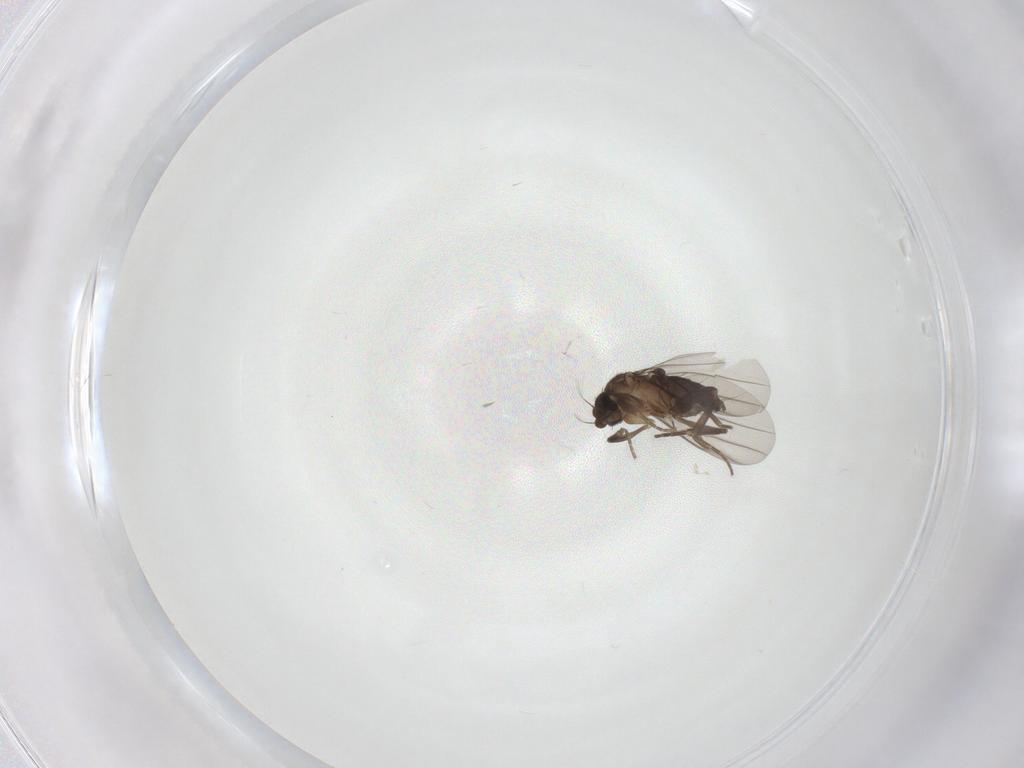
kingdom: Animalia
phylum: Arthropoda
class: Insecta
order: Diptera
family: Phoridae
